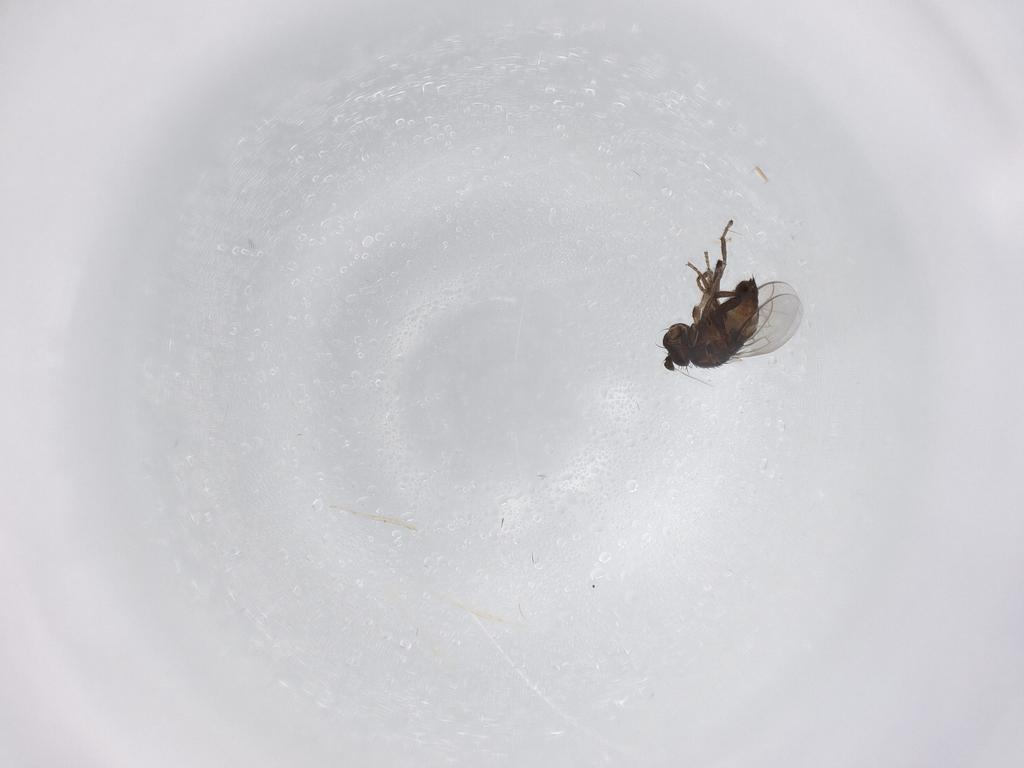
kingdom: Animalia
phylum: Arthropoda
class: Insecta
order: Diptera
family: Cecidomyiidae
